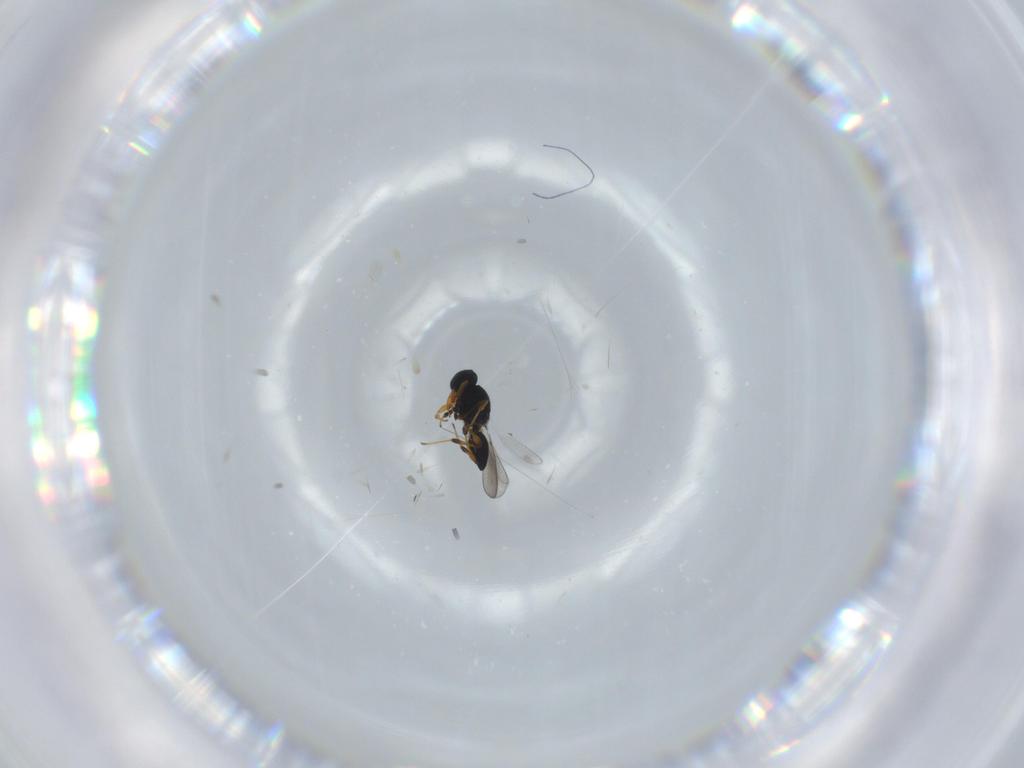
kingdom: Animalia
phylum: Arthropoda
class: Insecta
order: Hymenoptera
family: Platygastridae
